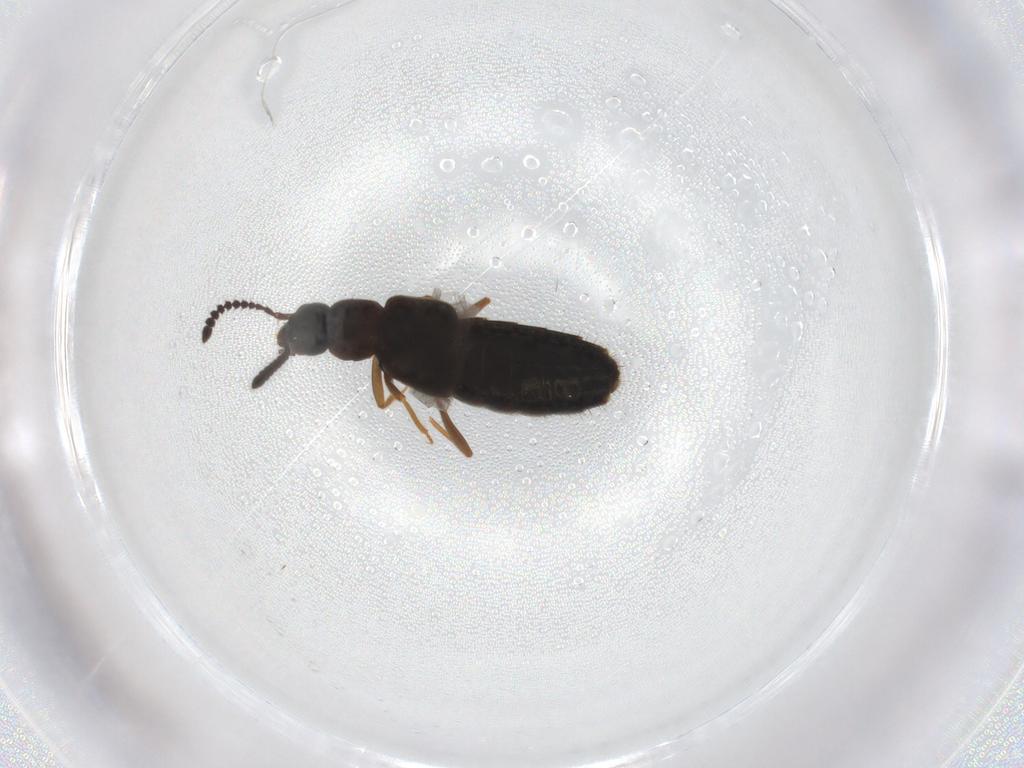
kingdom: Animalia
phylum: Arthropoda
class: Insecta
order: Coleoptera
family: Staphylinidae
